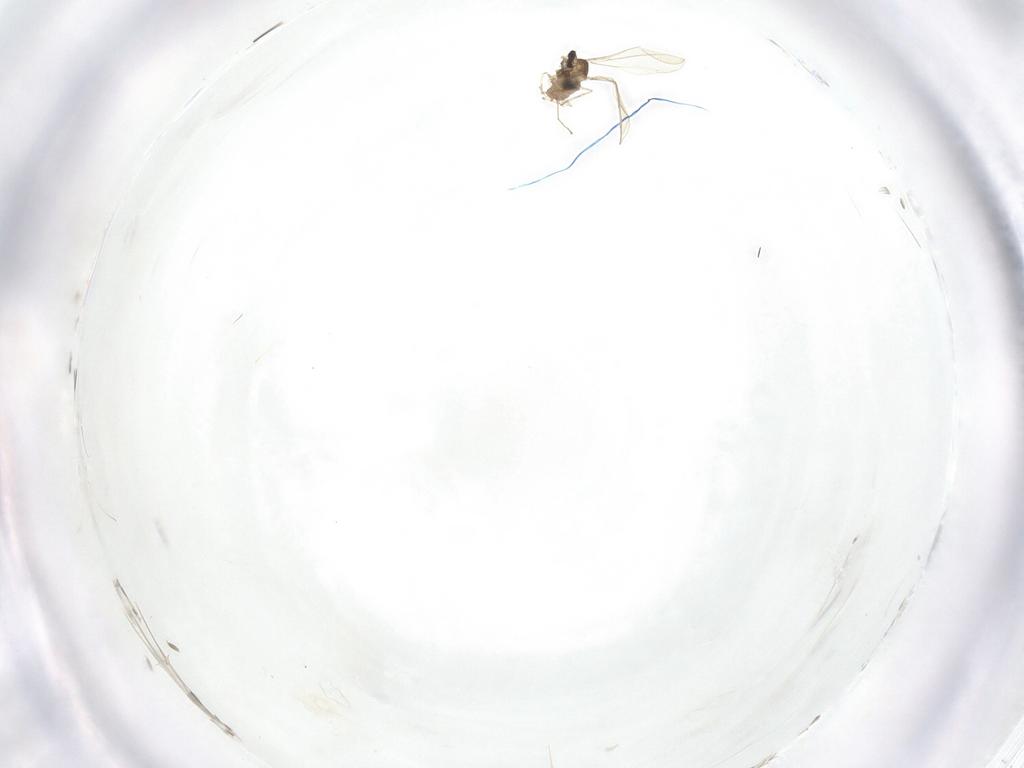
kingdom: Animalia
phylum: Arthropoda
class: Insecta
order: Diptera
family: Cecidomyiidae
